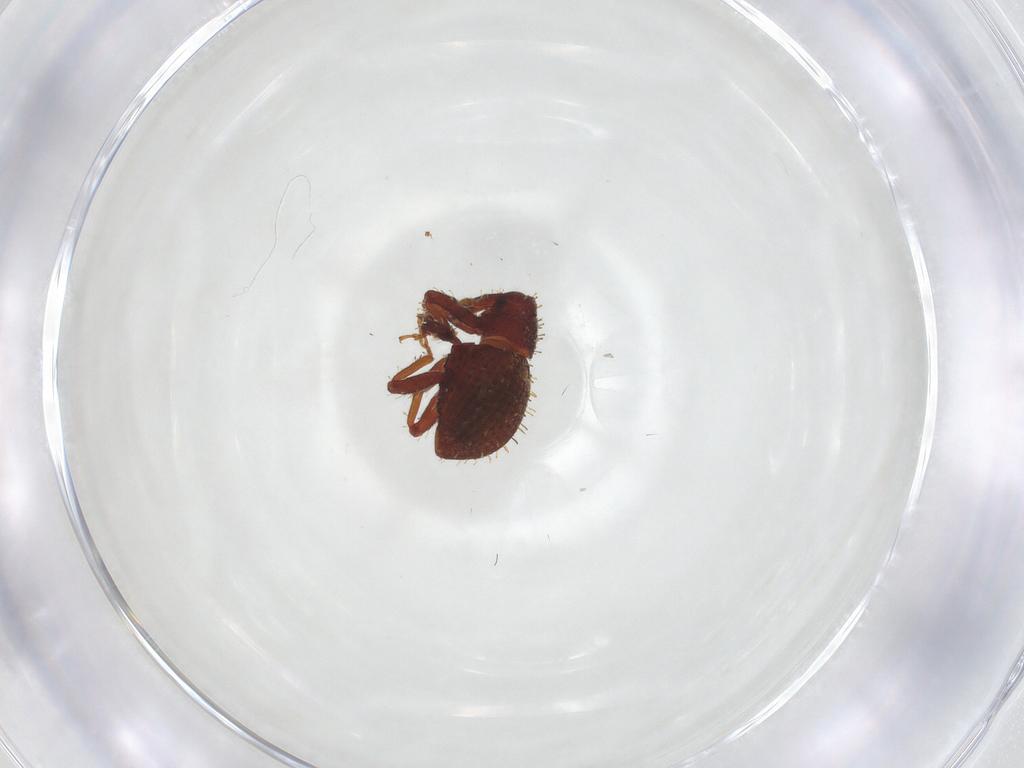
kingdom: Animalia
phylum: Arthropoda
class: Insecta
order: Coleoptera
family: Curculionidae
